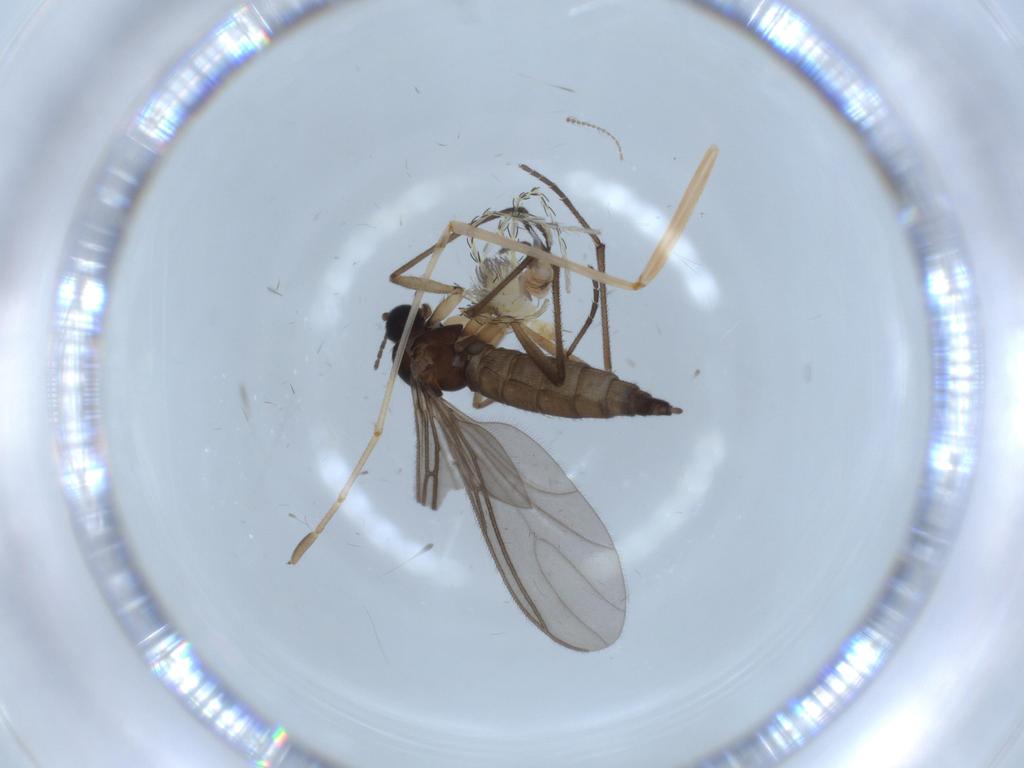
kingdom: Animalia
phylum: Arthropoda
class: Arachnida
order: Trombidiformes
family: Erythraeidae
